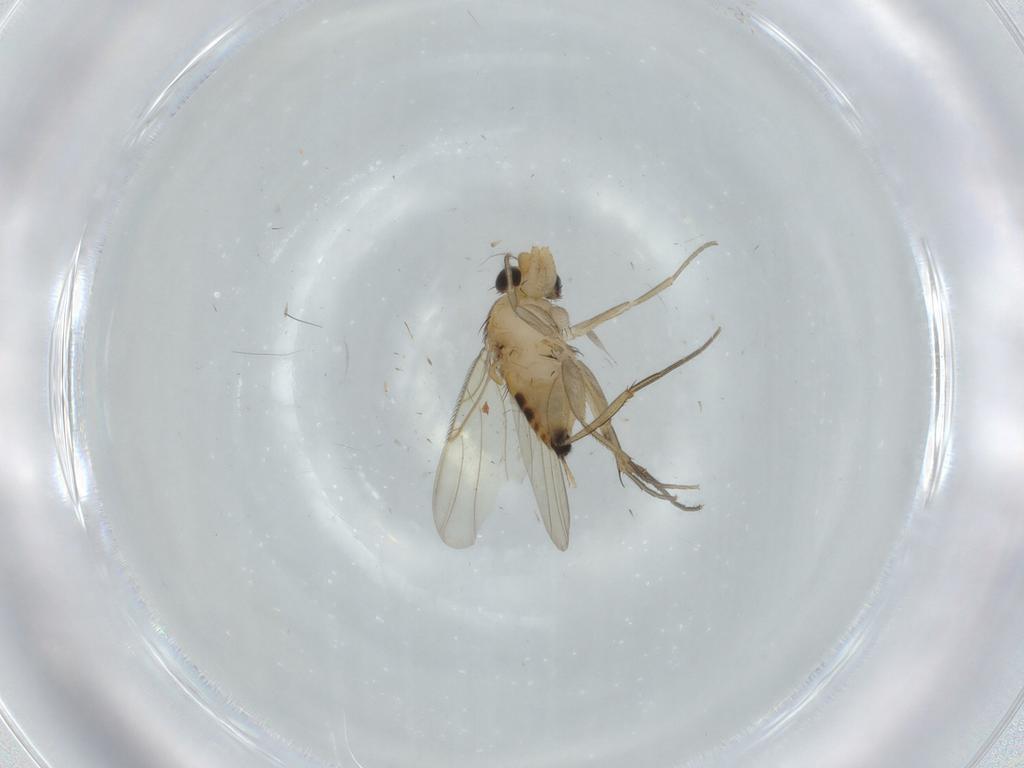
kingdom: Animalia
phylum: Arthropoda
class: Insecta
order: Diptera
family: Phoridae
